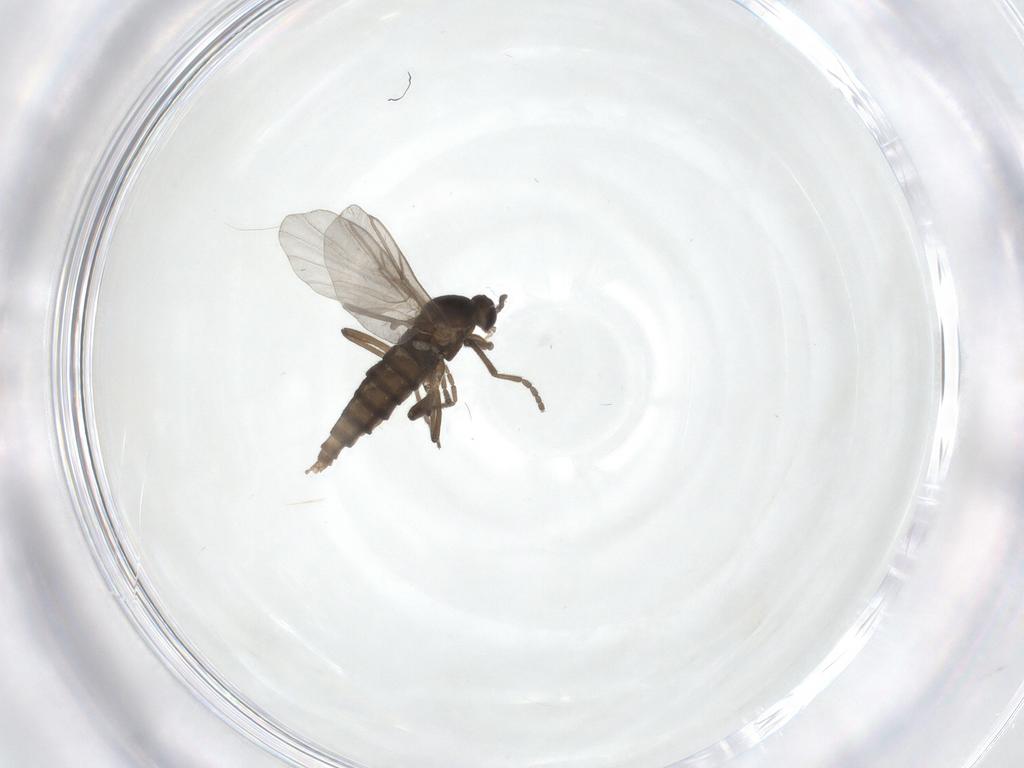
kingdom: Animalia
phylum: Arthropoda
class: Insecta
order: Diptera
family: Cecidomyiidae
